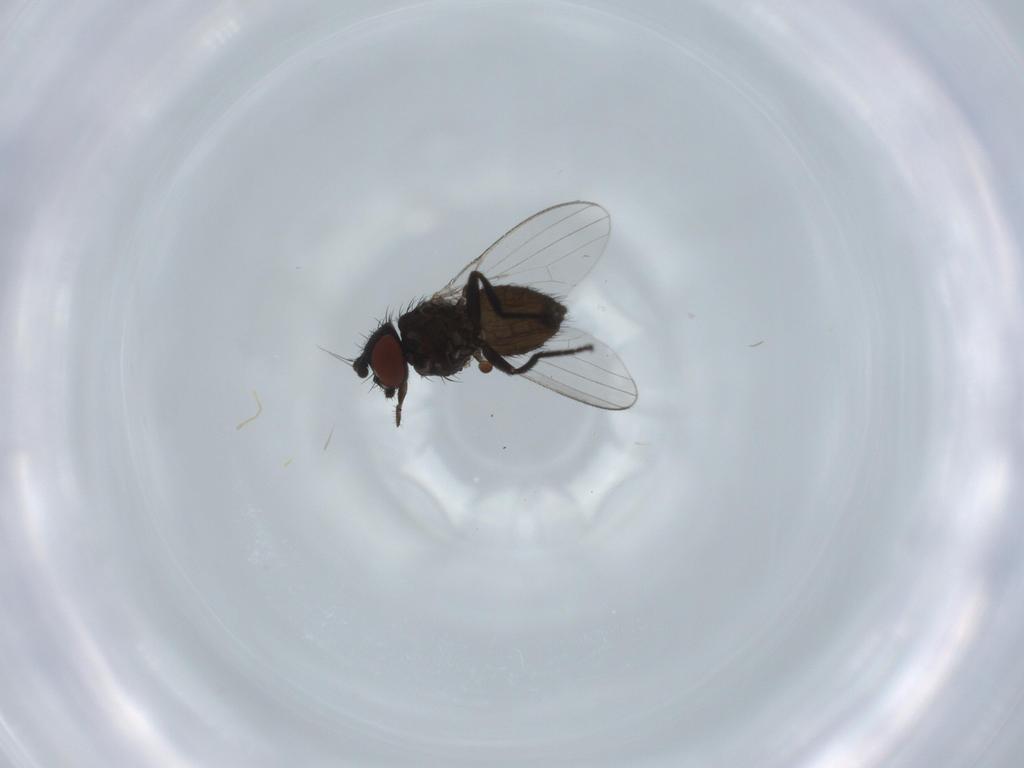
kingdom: Animalia
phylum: Arthropoda
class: Insecta
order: Diptera
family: Milichiidae
